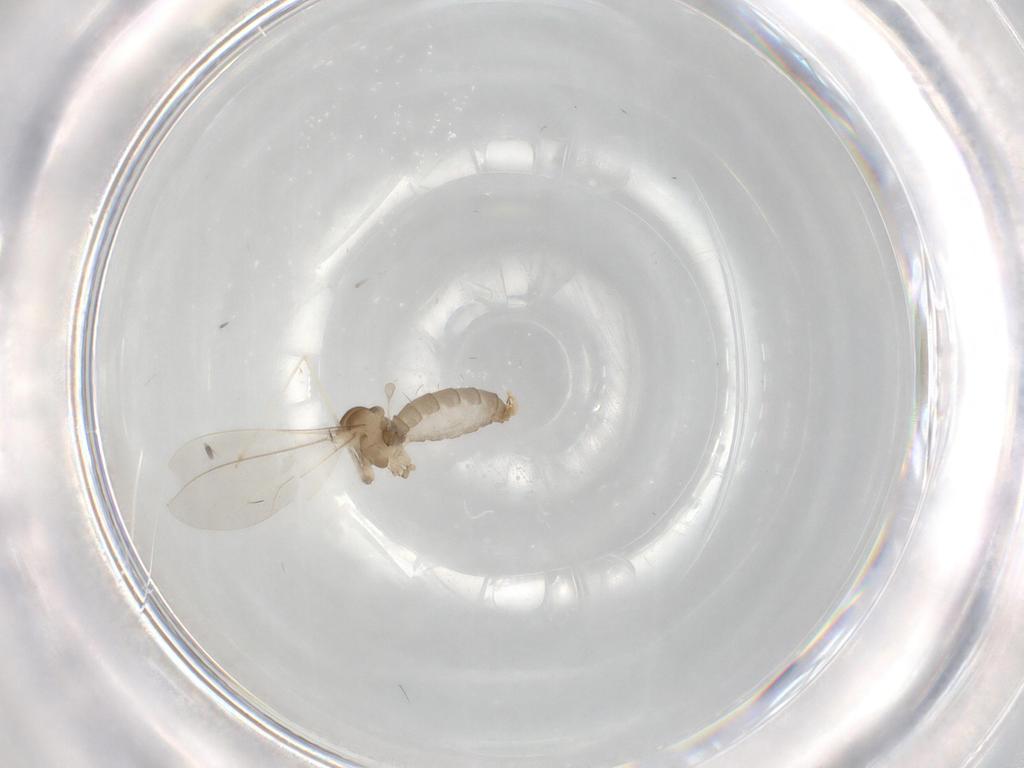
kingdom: Animalia
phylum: Arthropoda
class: Insecta
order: Diptera
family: Cecidomyiidae
